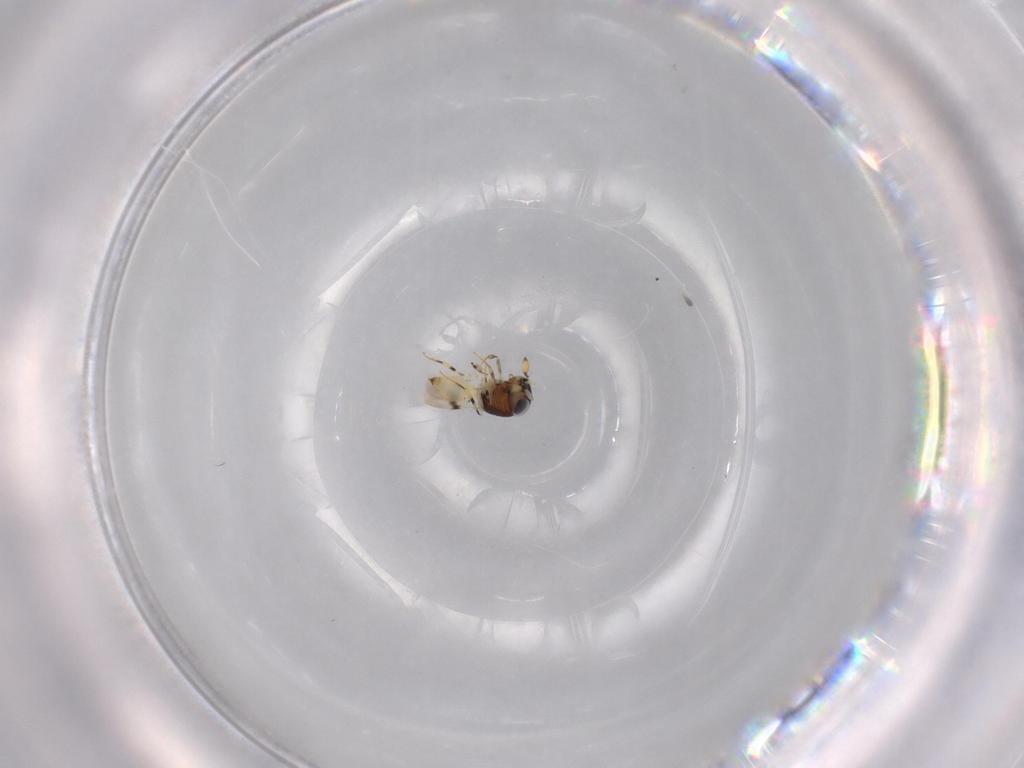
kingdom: Animalia
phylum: Arthropoda
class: Insecta
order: Hymenoptera
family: Scelionidae
